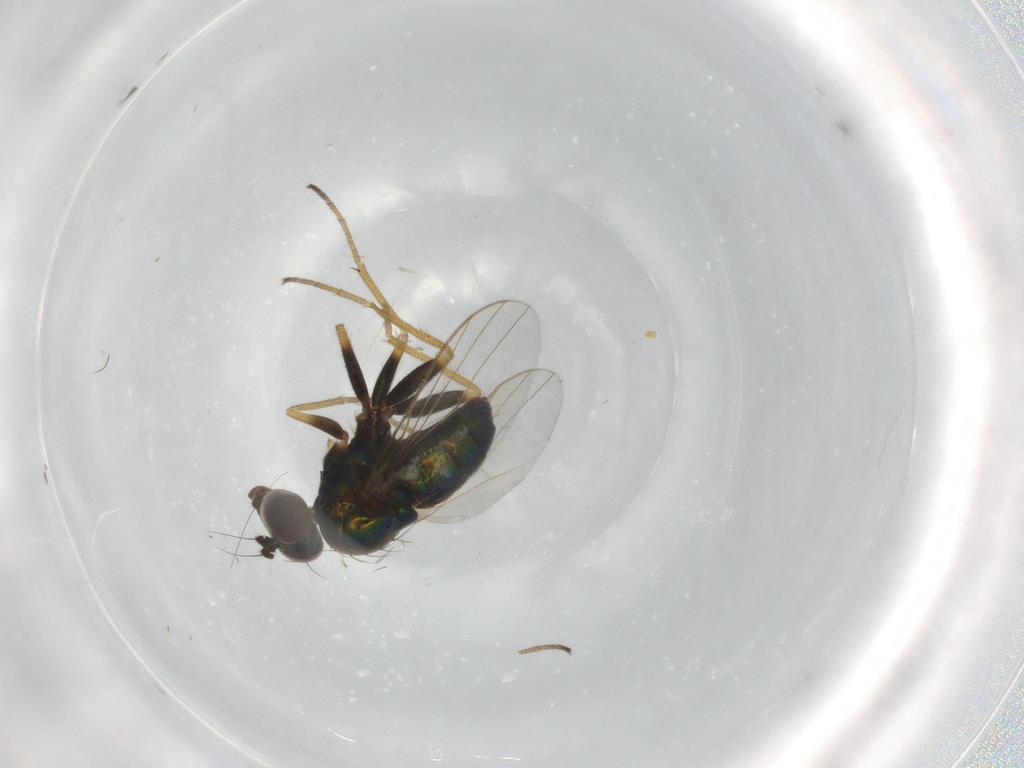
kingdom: Animalia
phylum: Arthropoda
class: Insecta
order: Diptera
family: Dolichopodidae
